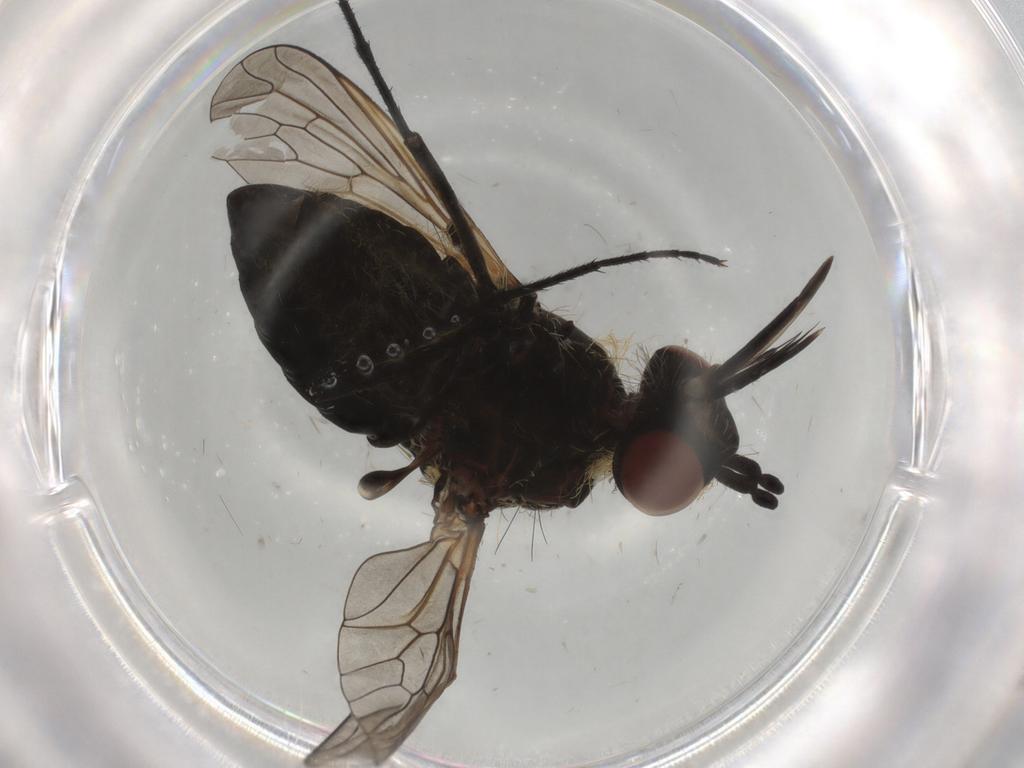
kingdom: Animalia
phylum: Arthropoda
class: Insecta
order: Diptera
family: Bombyliidae
